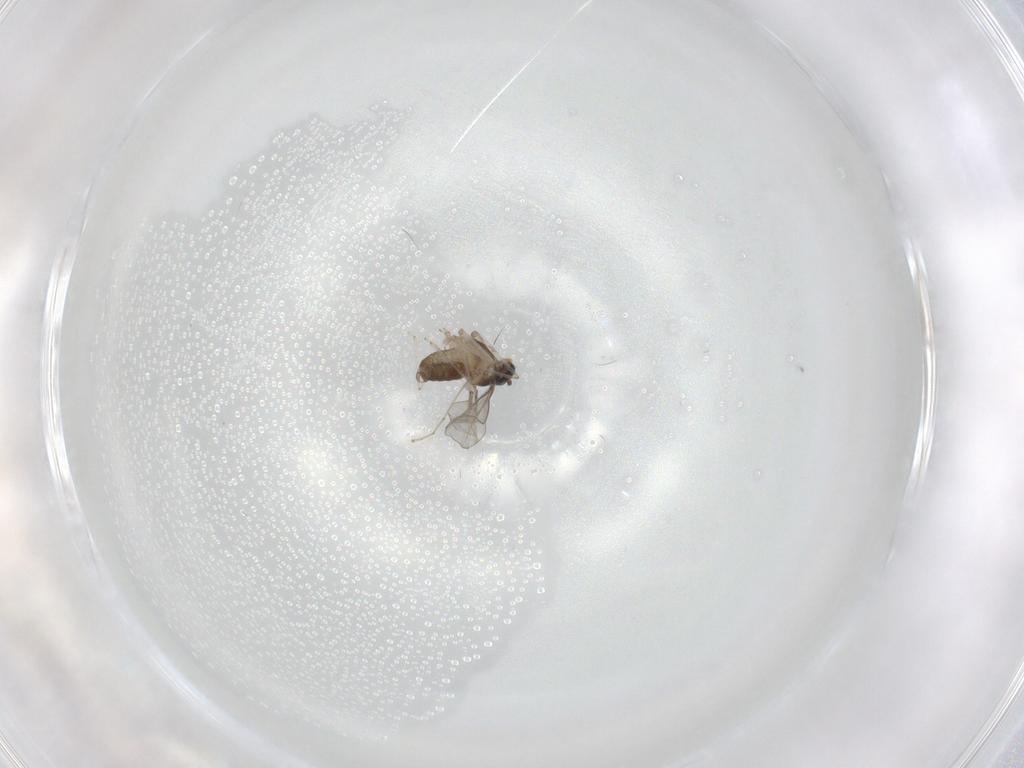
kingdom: Animalia
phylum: Arthropoda
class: Insecta
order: Diptera
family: Cecidomyiidae
